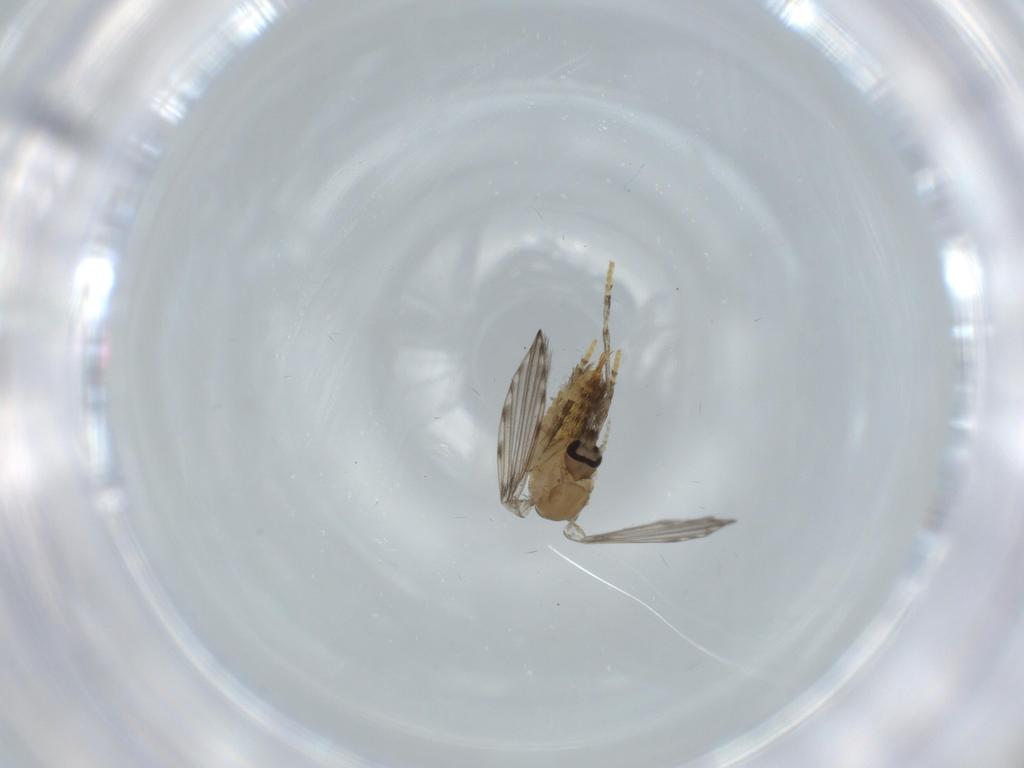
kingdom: Animalia
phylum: Arthropoda
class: Insecta
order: Diptera
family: Psychodidae
